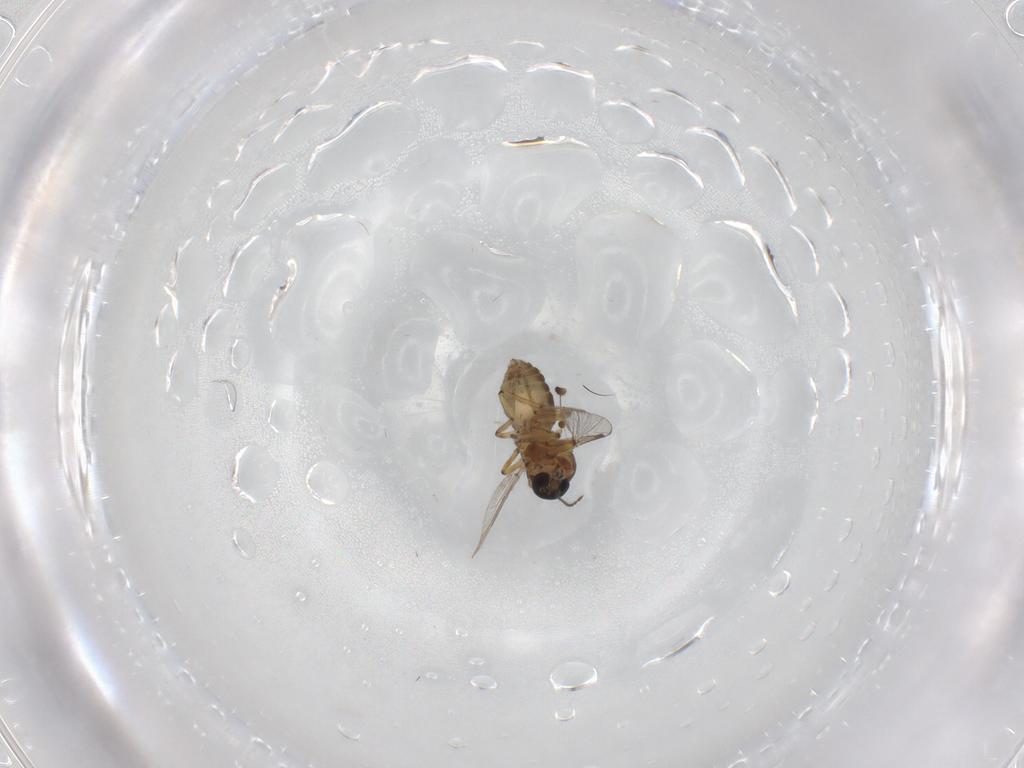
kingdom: Animalia
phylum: Arthropoda
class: Insecta
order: Diptera
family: Ceratopogonidae
